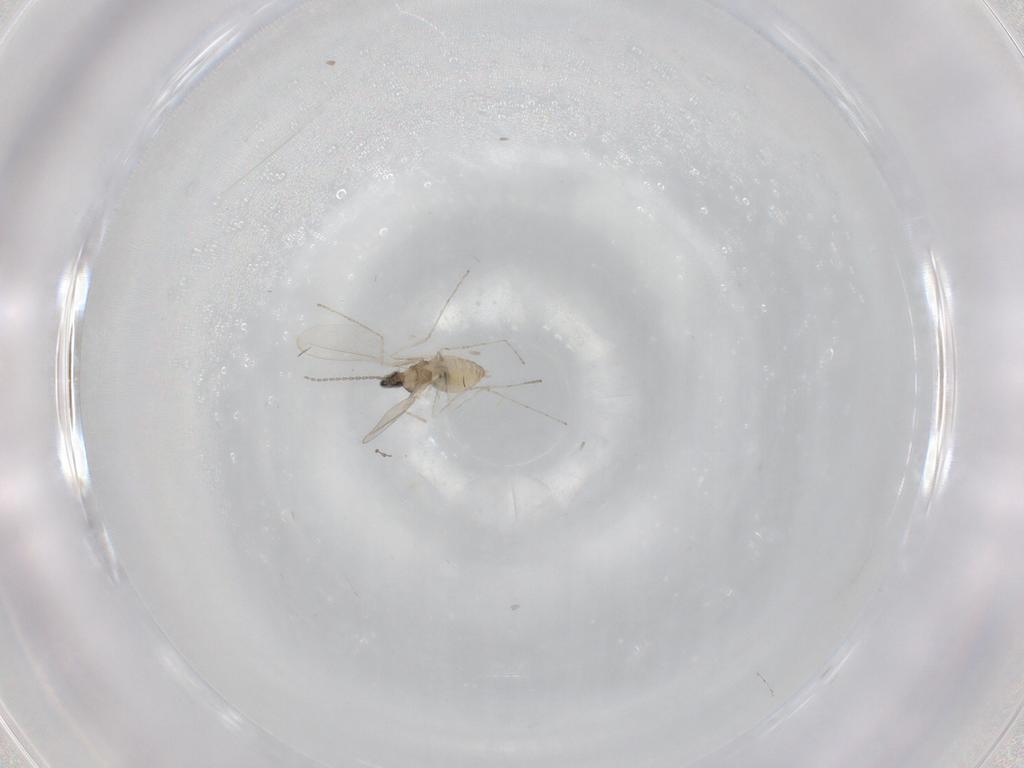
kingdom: Animalia
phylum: Arthropoda
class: Insecta
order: Diptera
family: Cecidomyiidae
